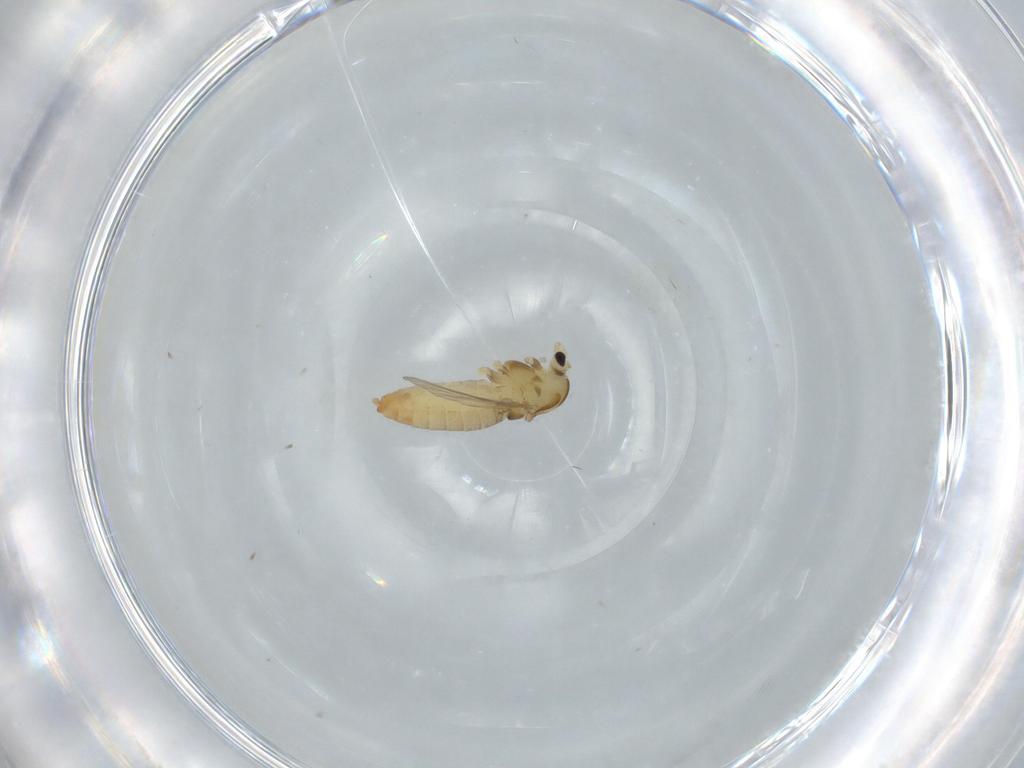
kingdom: Animalia
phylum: Arthropoda
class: Insecta
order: Diptera
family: Chironomidae
